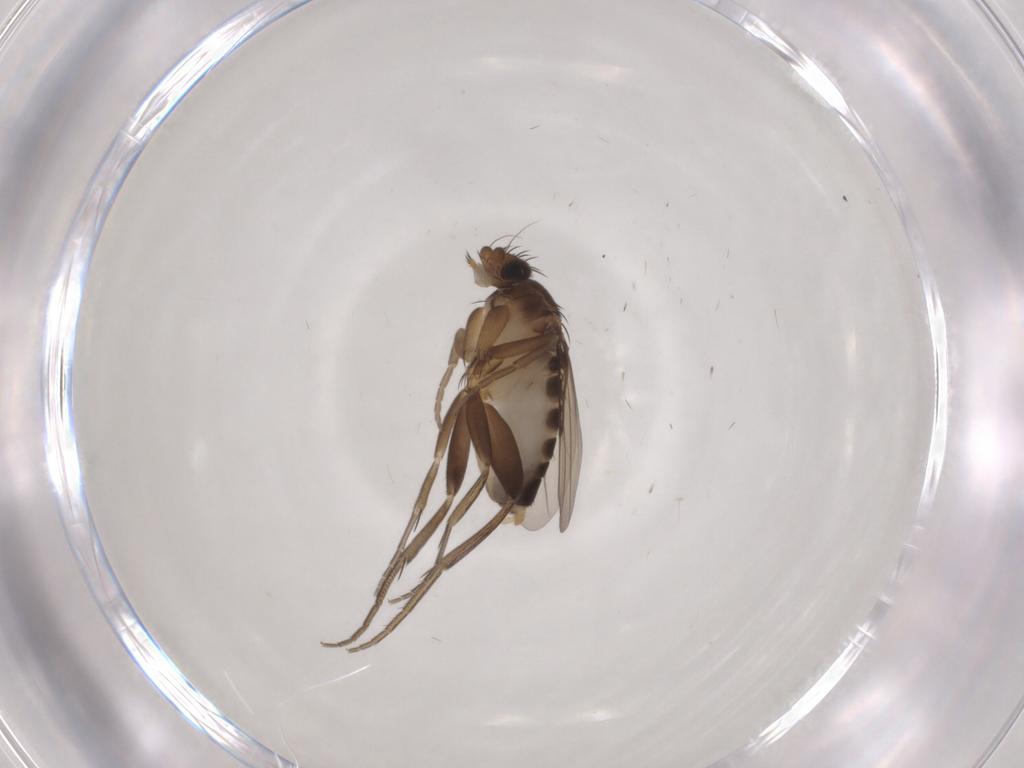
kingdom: Animalia
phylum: Arthropoda
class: Insecta
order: Diptera
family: Phoridae
